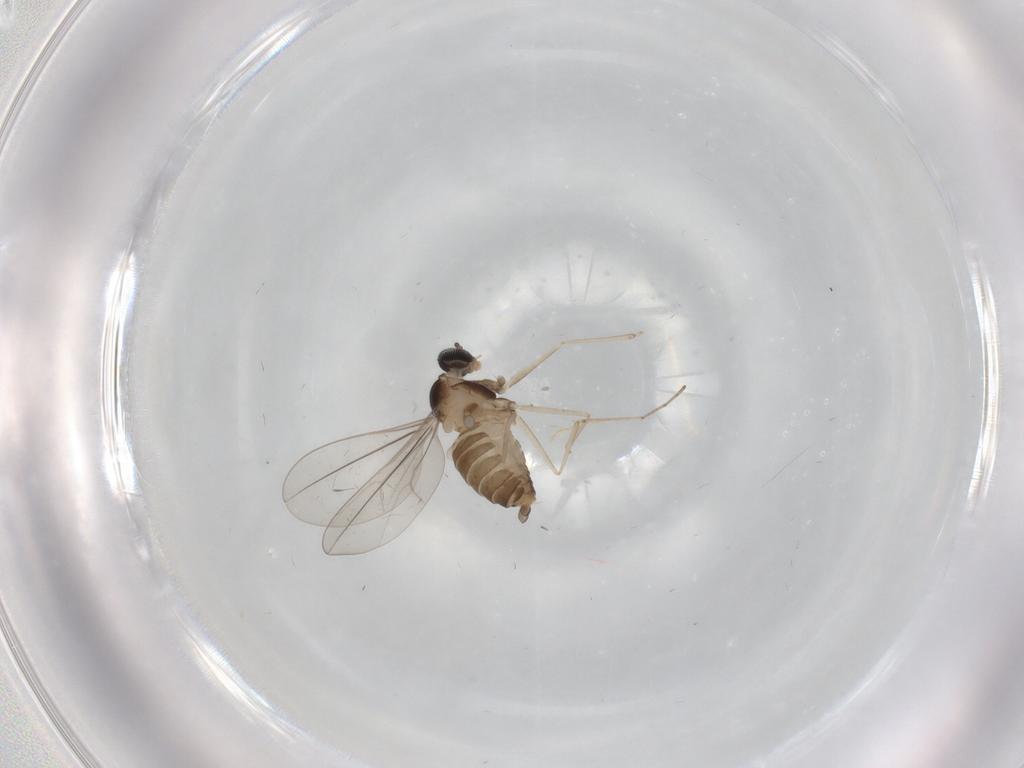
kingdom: Animalia
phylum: Arthropoda
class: Insecta
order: Diptera
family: Cecidomyiidae
